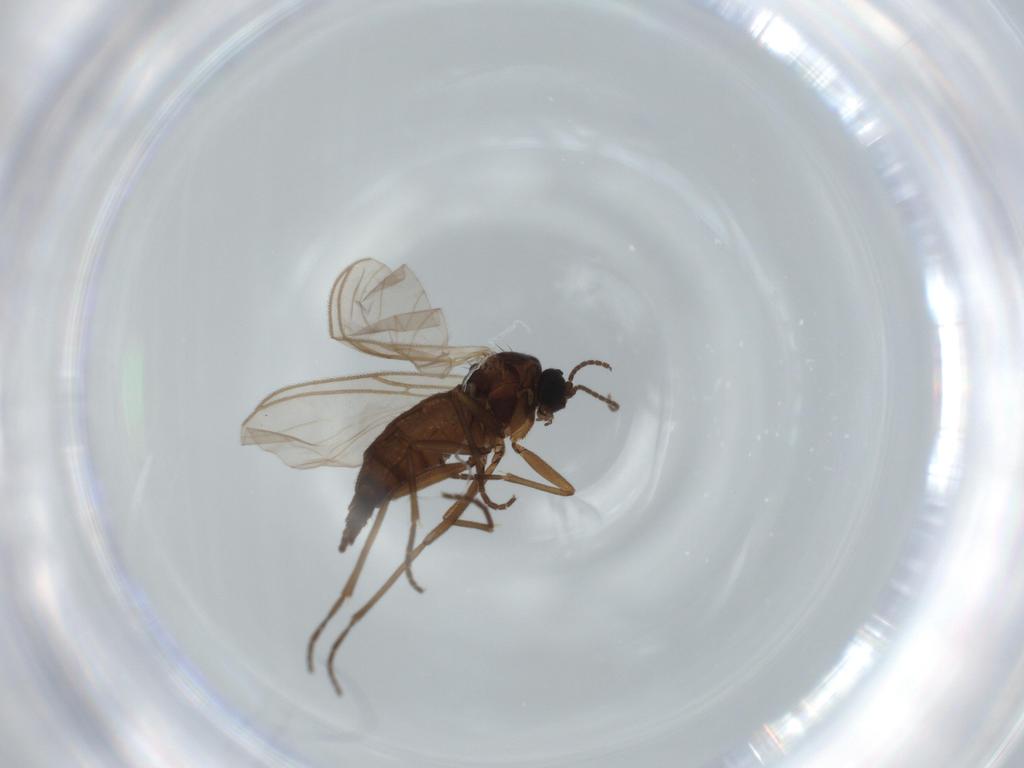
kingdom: Animalia
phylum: Arthropoda
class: Insecta
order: Diptera
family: Sciaridae
